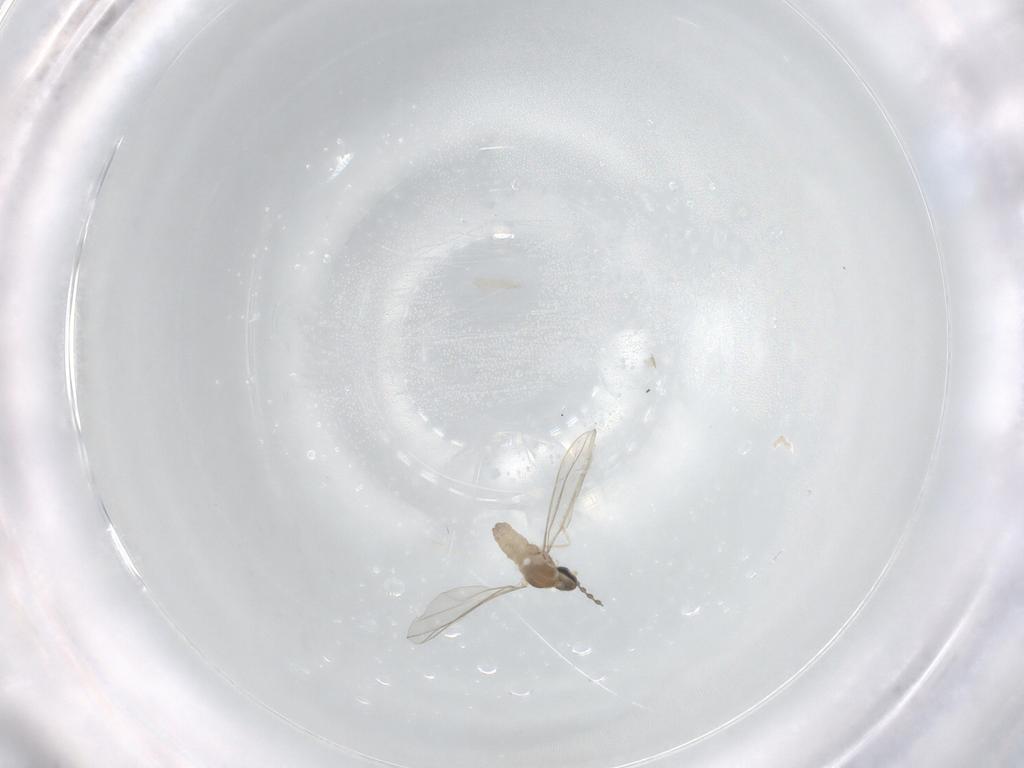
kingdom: Animalia
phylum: Arthropoda
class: Insecta
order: Diptera
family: Cecidomyiidae
